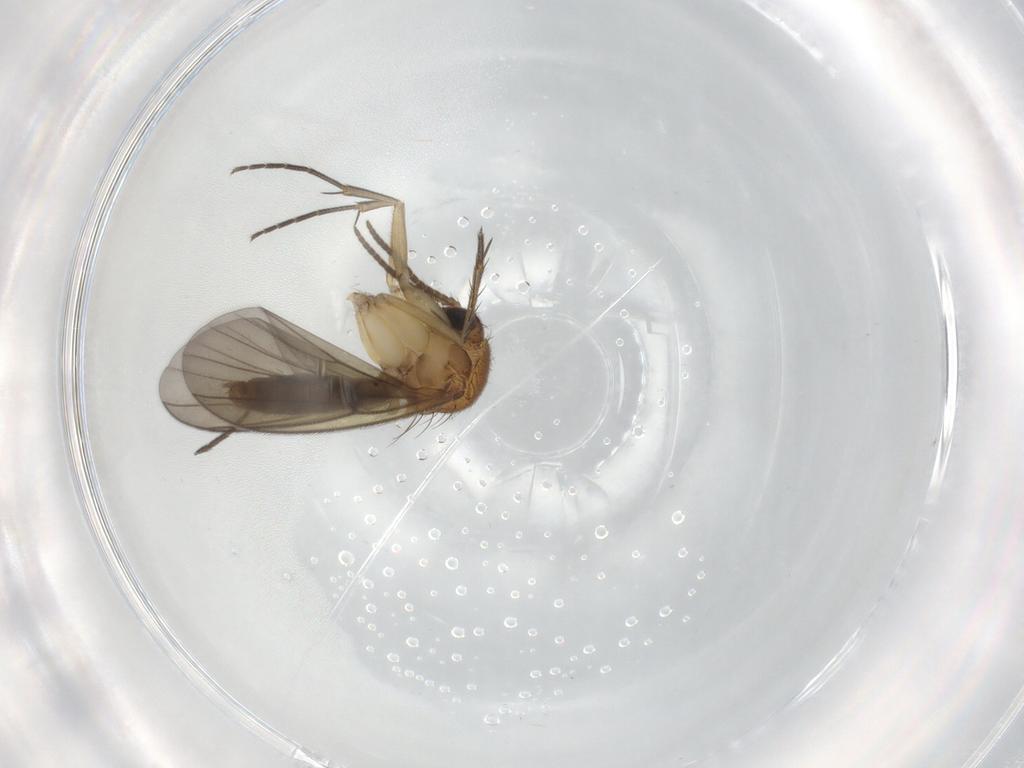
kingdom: Animalia
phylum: Arthropoda
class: Insecta
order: Diptera
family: Mycetophilidae
